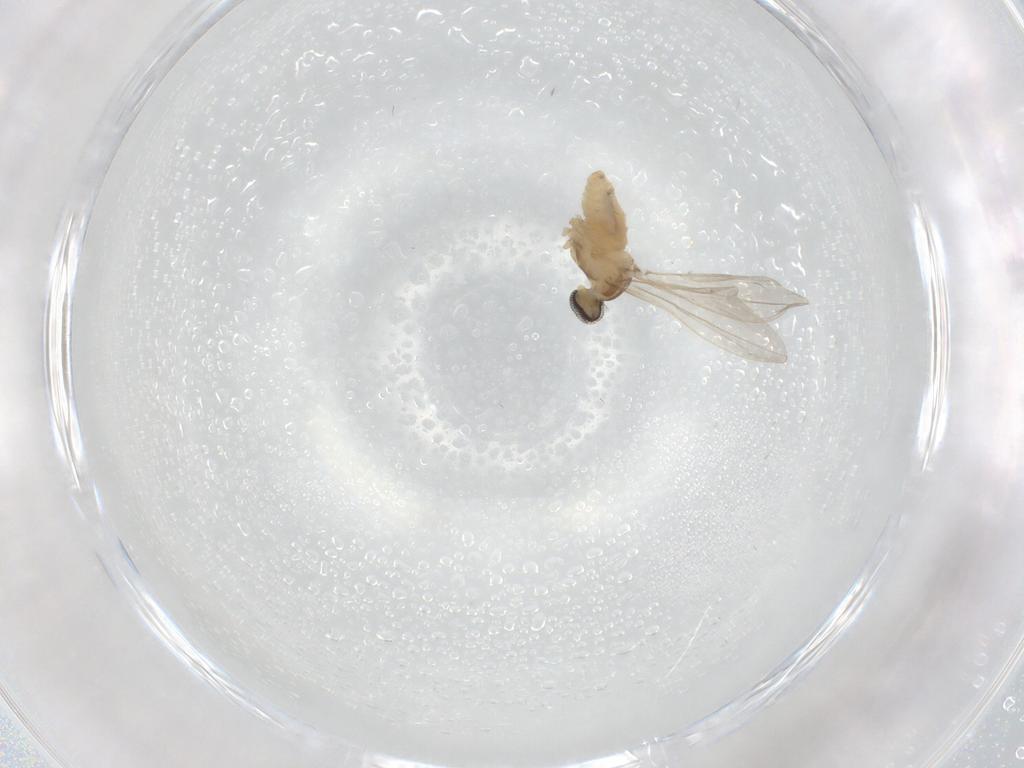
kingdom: Animalia
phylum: Arthropoda
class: Insecta
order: Diptera
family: Cecidomyiidae
